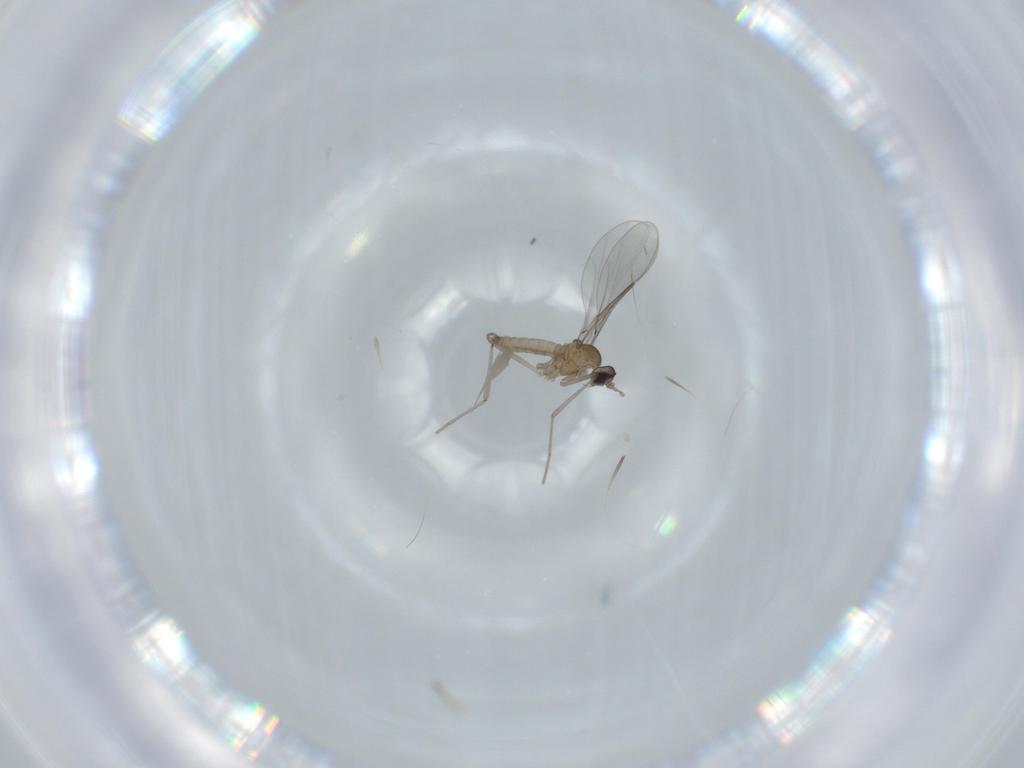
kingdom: Animalia
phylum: Arthropoda
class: Insecta
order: Diptera
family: Cecidomyiidae
